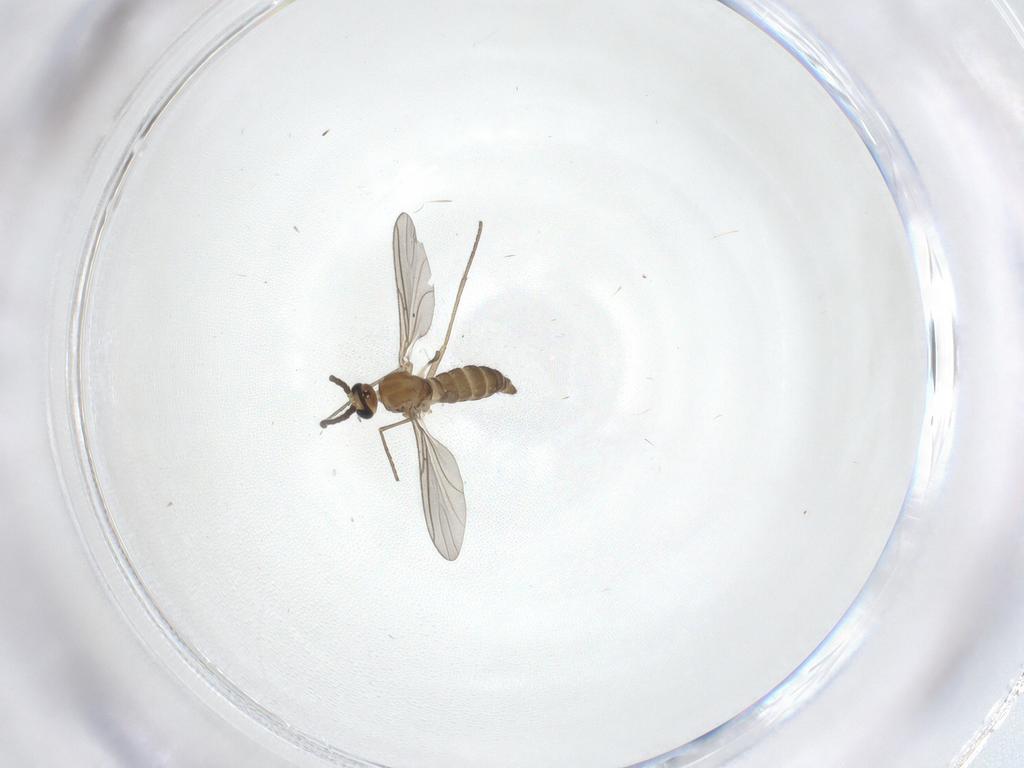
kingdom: Animalia
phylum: Arthropoda
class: Insecta
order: Diptera
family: Sciaridae
